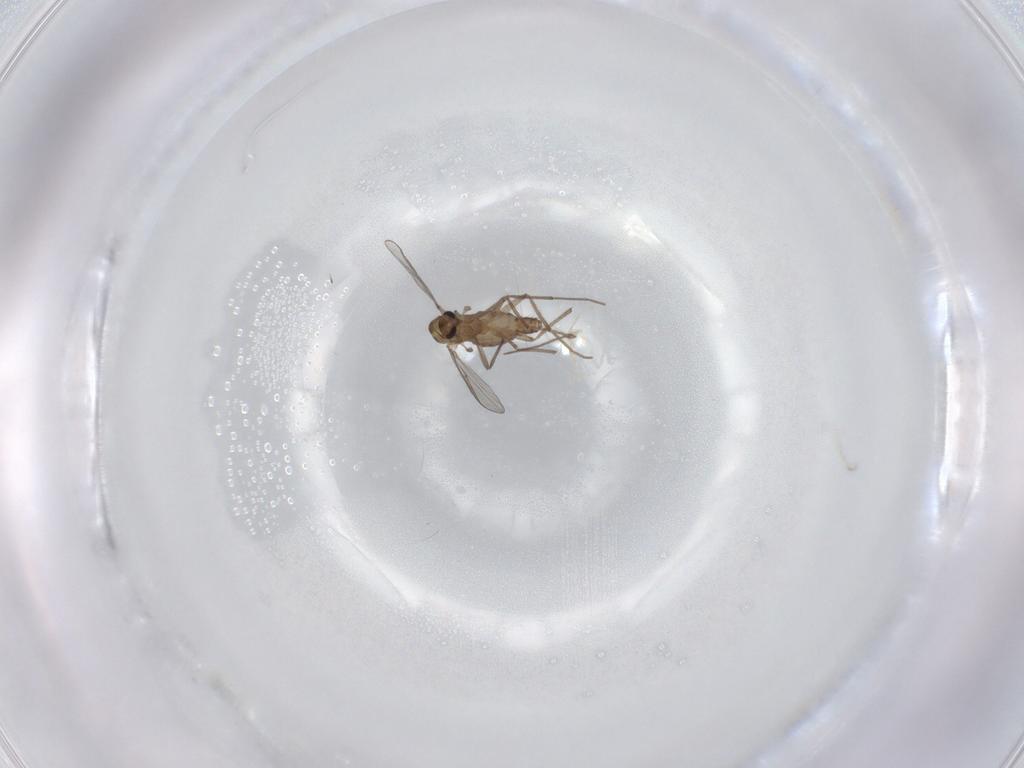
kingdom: Animalia
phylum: Arthropoda
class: Insecta
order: Diptera
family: Chironomidae
